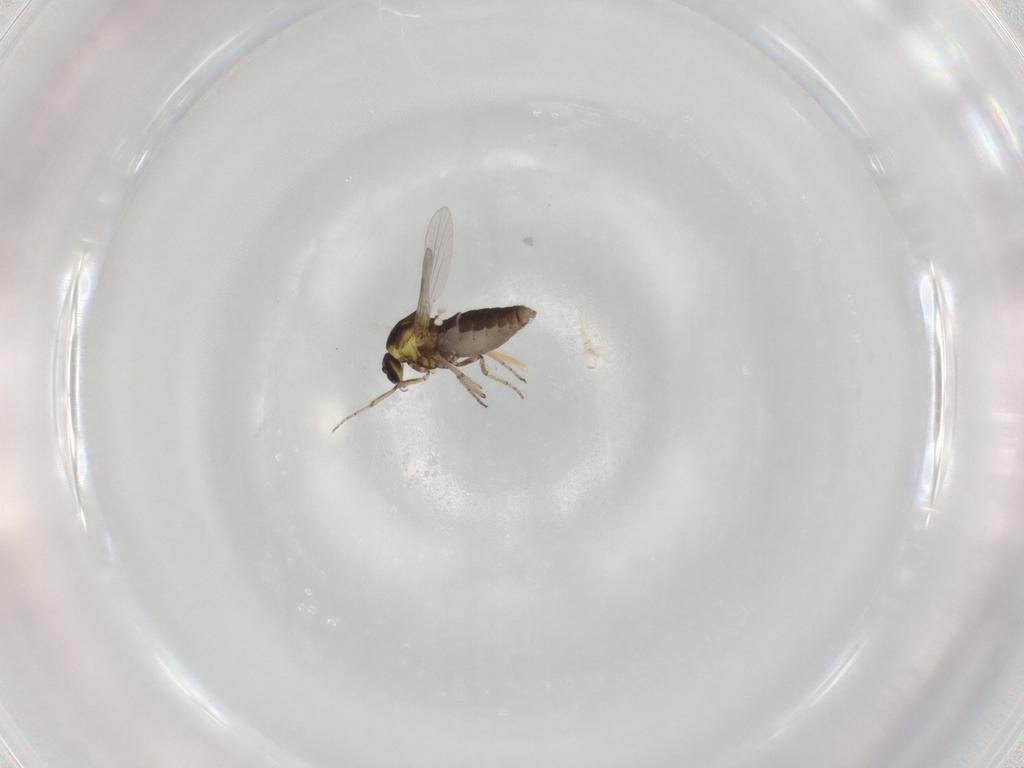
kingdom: Animalia
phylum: Arthropoda
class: Insecta
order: Diptera
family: Ceratopogonidae
